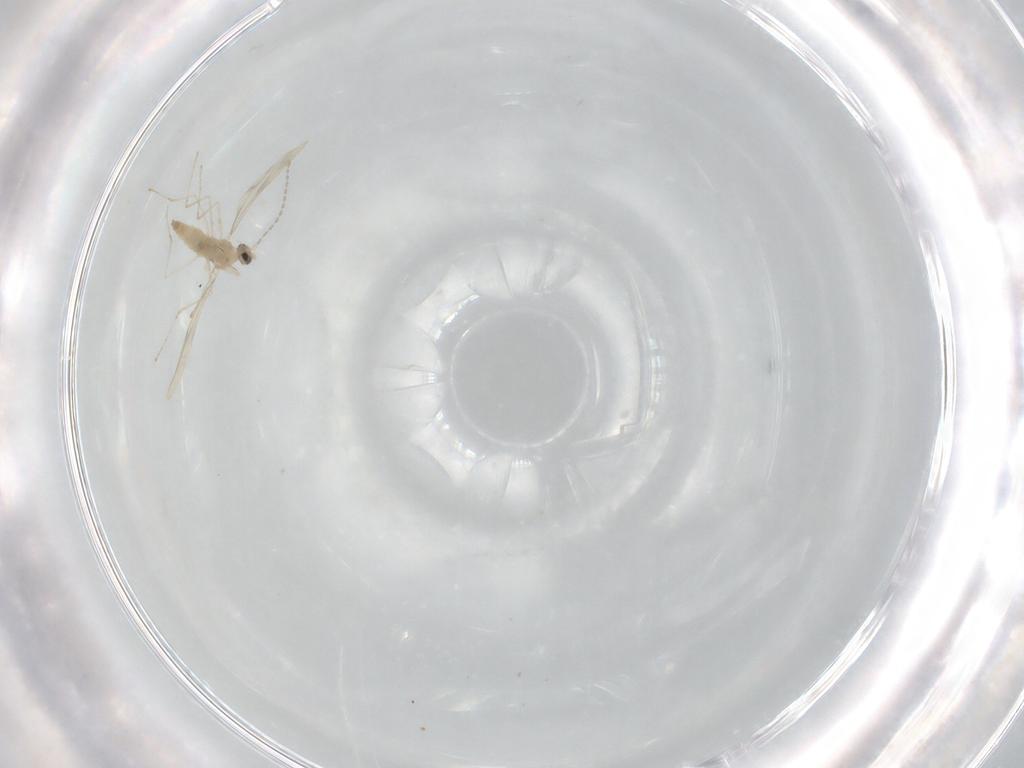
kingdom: Animalia
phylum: Arthropoda
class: Insecta
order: Diptera
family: Cecidomyiidae
